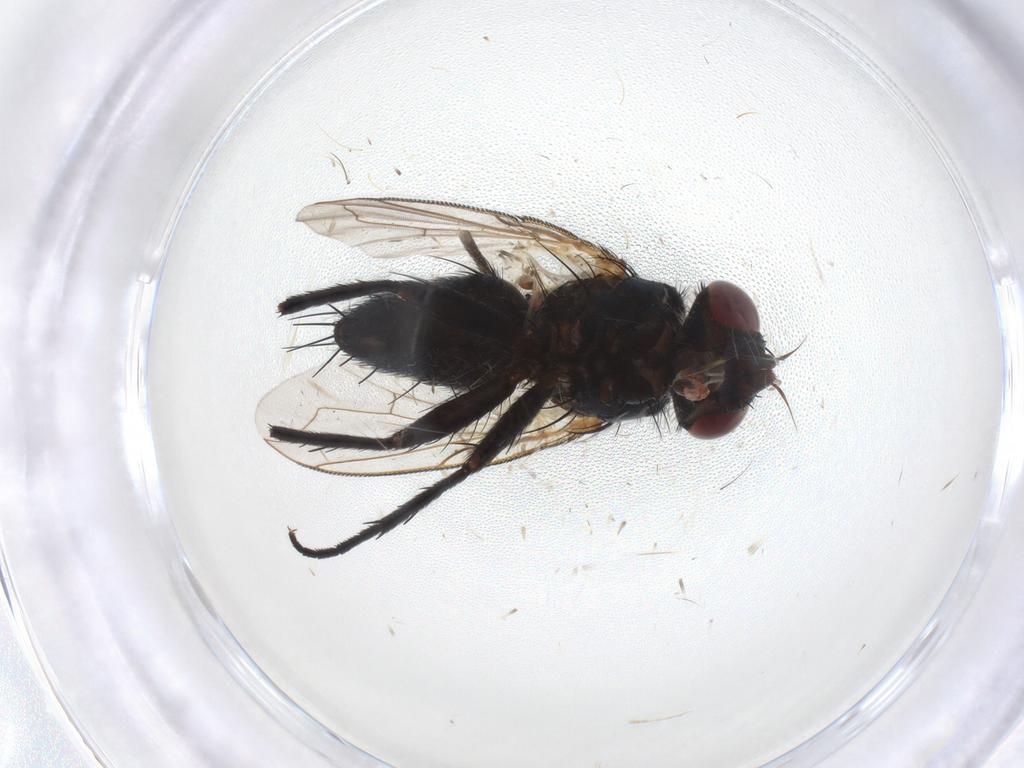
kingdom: Animalia
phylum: Arthropoda
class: Insecta
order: Diptera
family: Tachinidae
